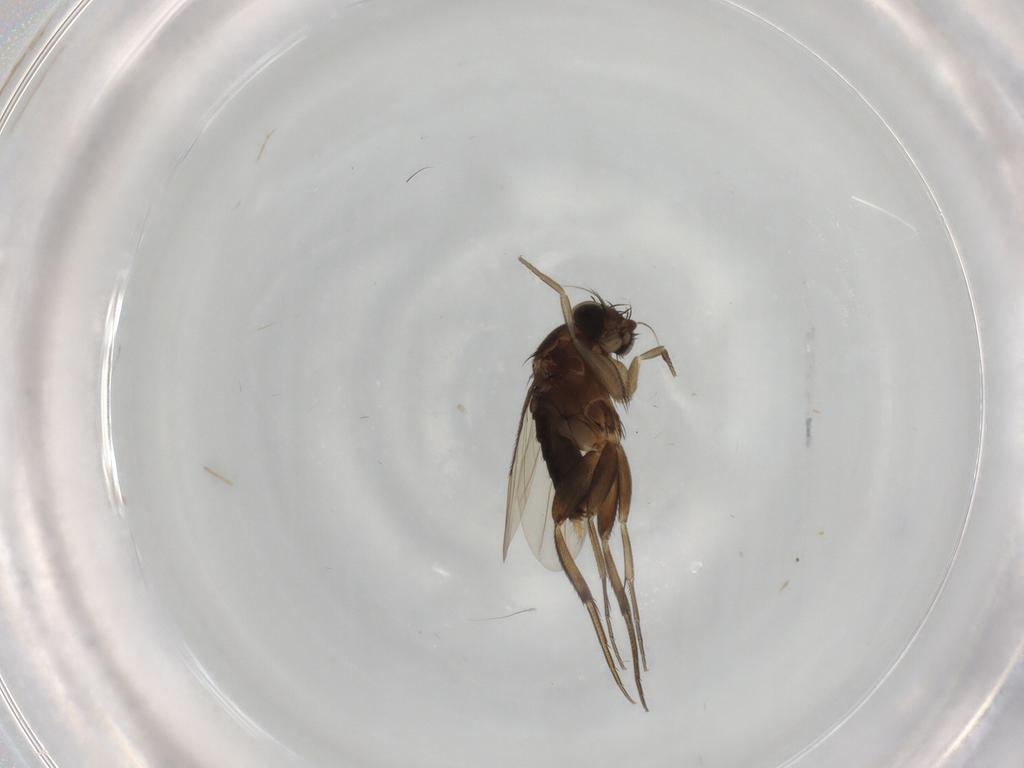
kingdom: Animalia
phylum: Arthropoda
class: Insecta
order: Diptera
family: Phoridae
